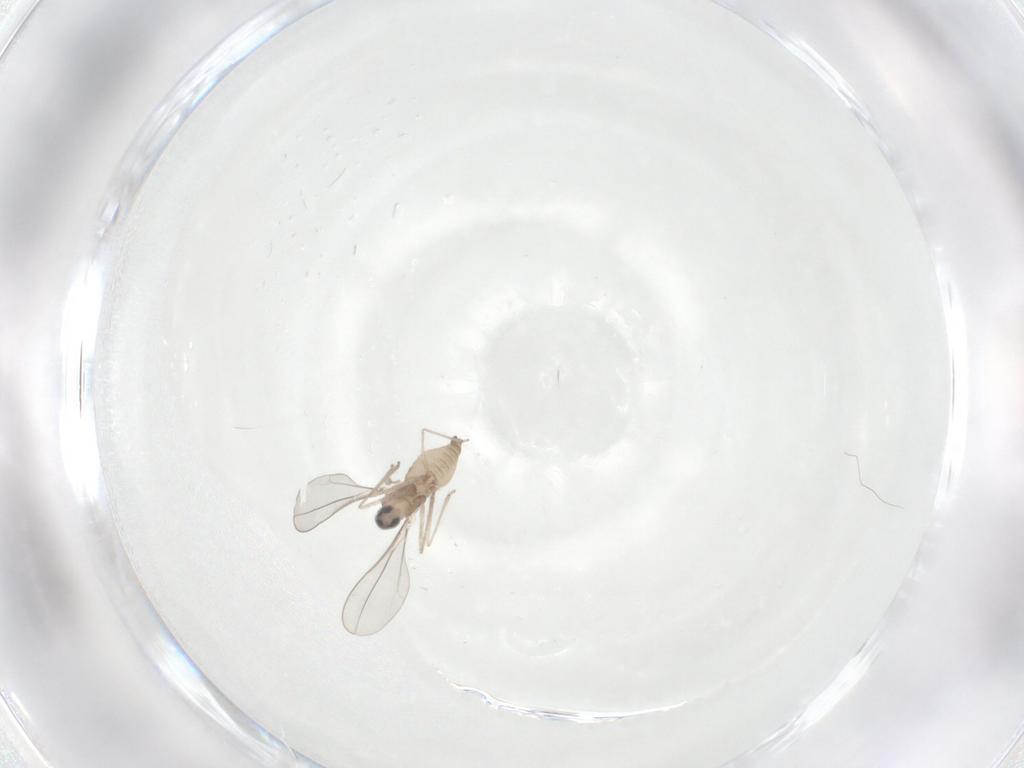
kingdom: Animalia
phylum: Arthropoda
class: Insecta
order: Diptera
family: Cecidomyiidae
